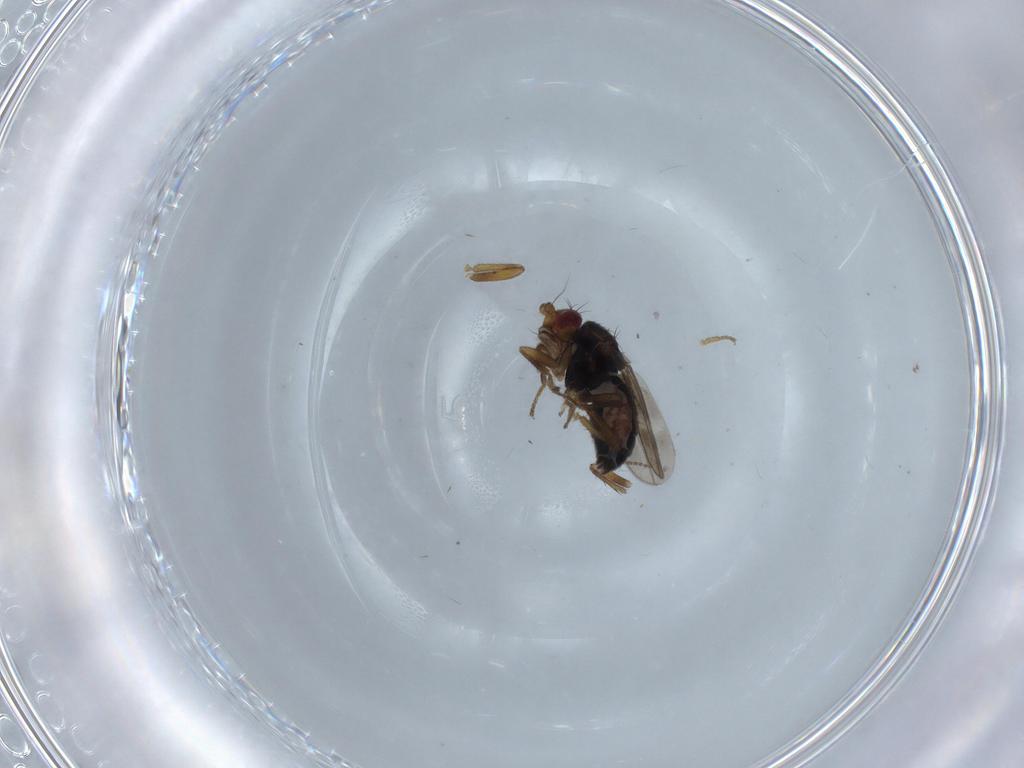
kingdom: Animalia
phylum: Arthropoda
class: Insecta
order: Diptera
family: Sphaeroceridae
